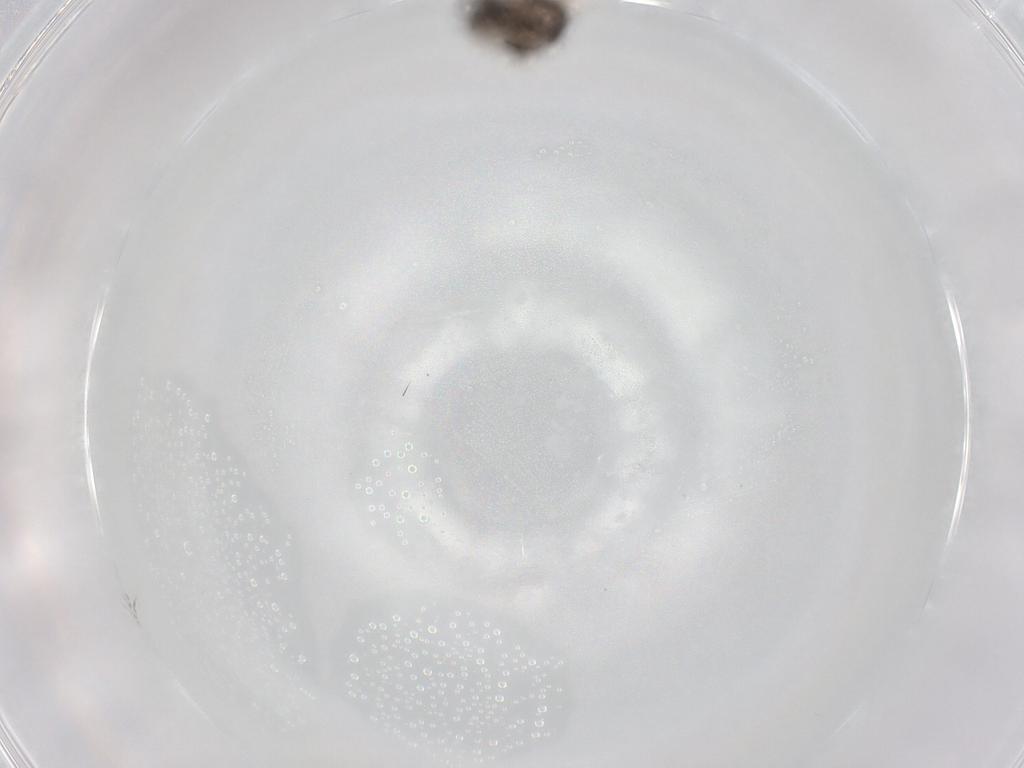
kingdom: Animalia
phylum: Arthropoda
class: Insecta
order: Diptera
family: Chironomidae
